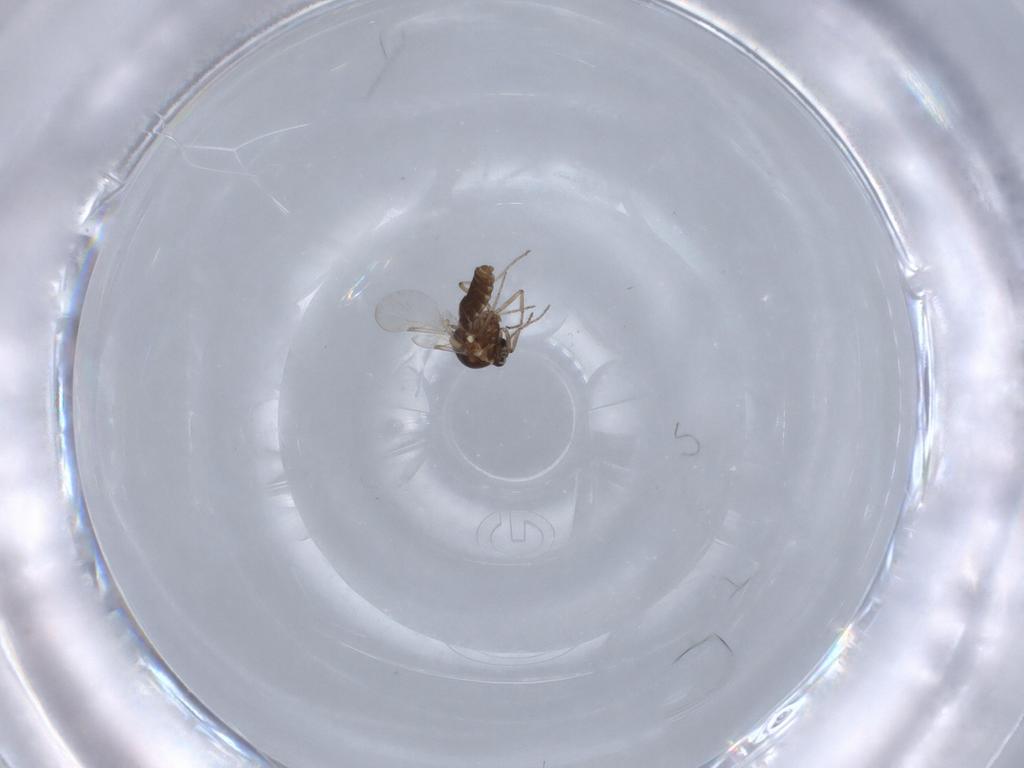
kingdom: Animalia
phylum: Arthropoda
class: Insecta
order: Diptera
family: Ceratopogonidae
